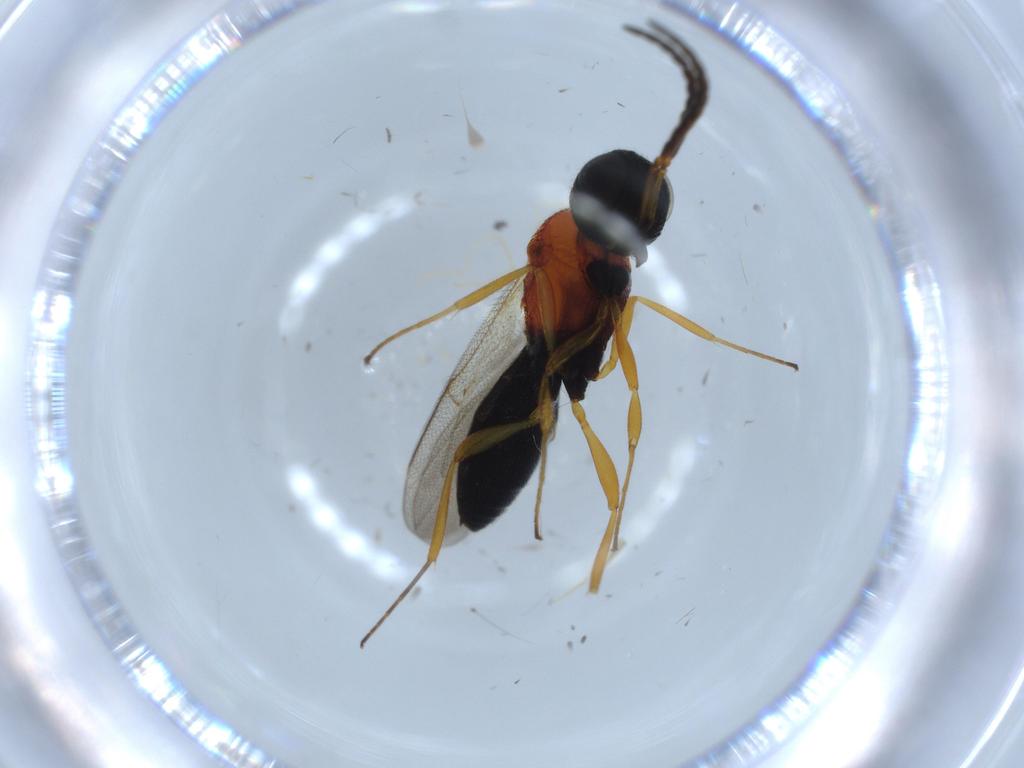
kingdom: Animalia
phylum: Arthropoda
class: Insecta
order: Hymenoptera
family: Scelionidae
